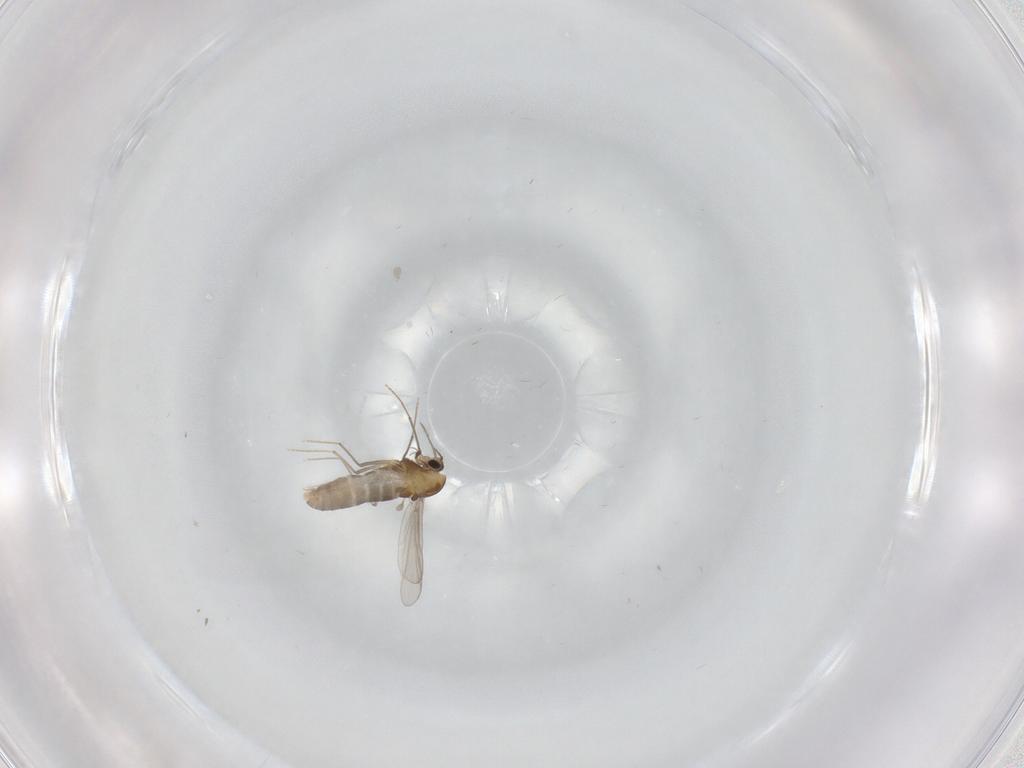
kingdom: Animalia
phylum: Arthropoda
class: Insecta
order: Diptera
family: Chironomidae
